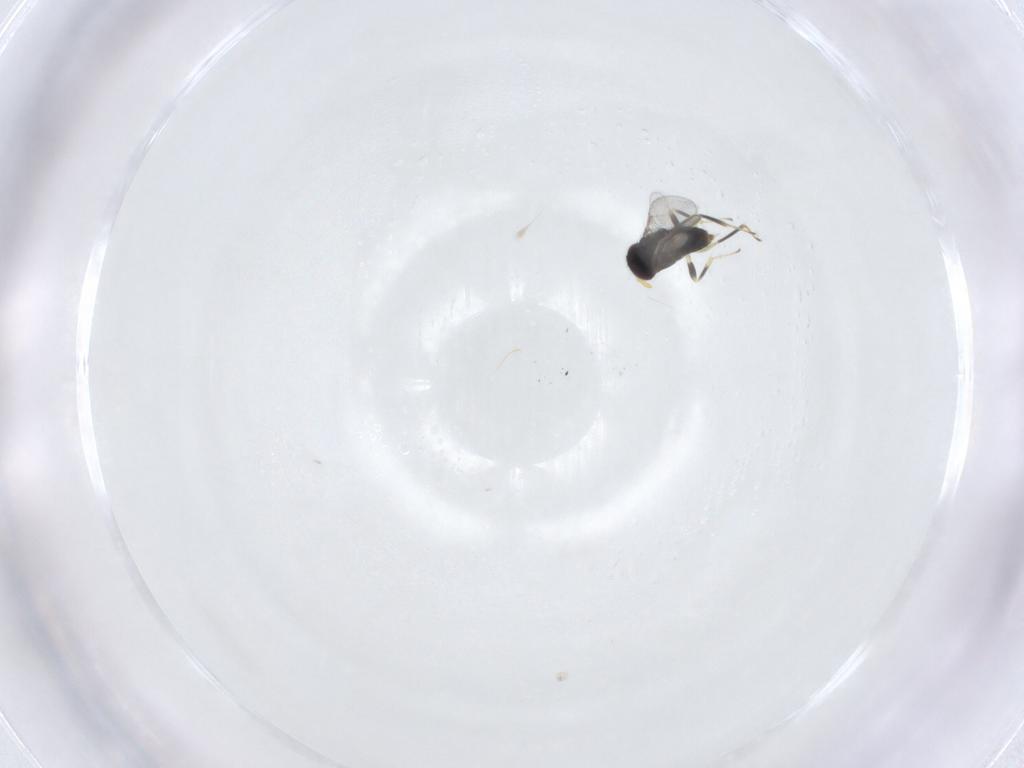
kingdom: Animalia
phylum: Arthropoda
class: Insecta
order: Hymenoptera
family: Aphelinidae
